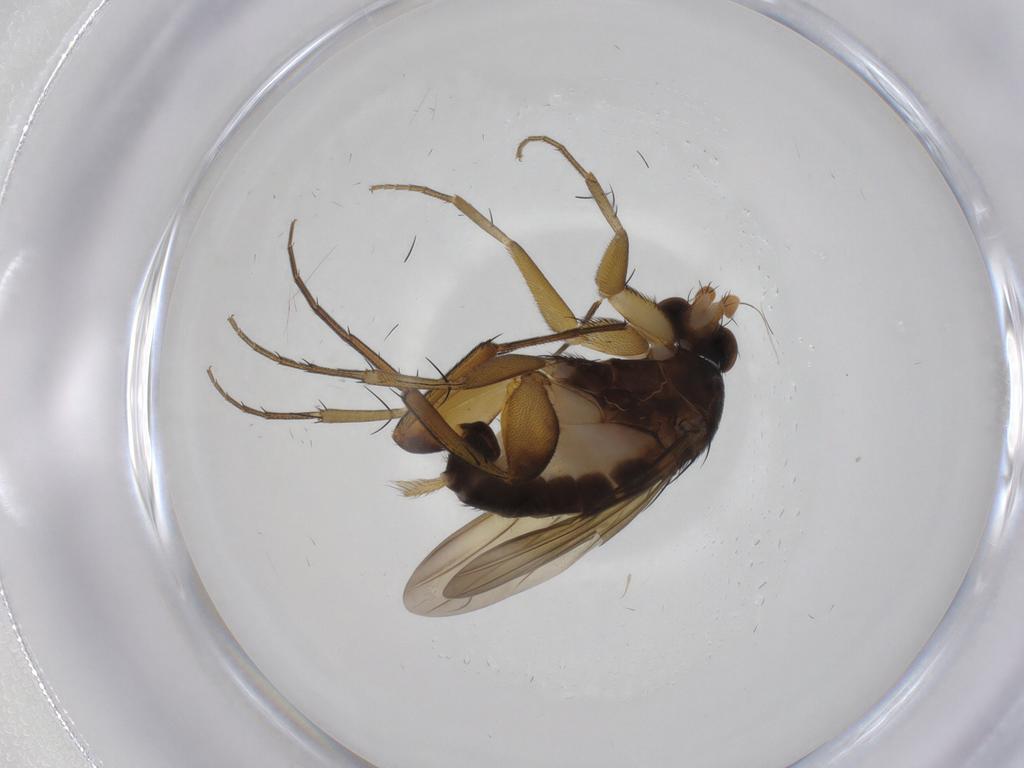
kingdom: Animalia
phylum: Arthropoda
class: Insecta
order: Diptera
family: Phoridae
